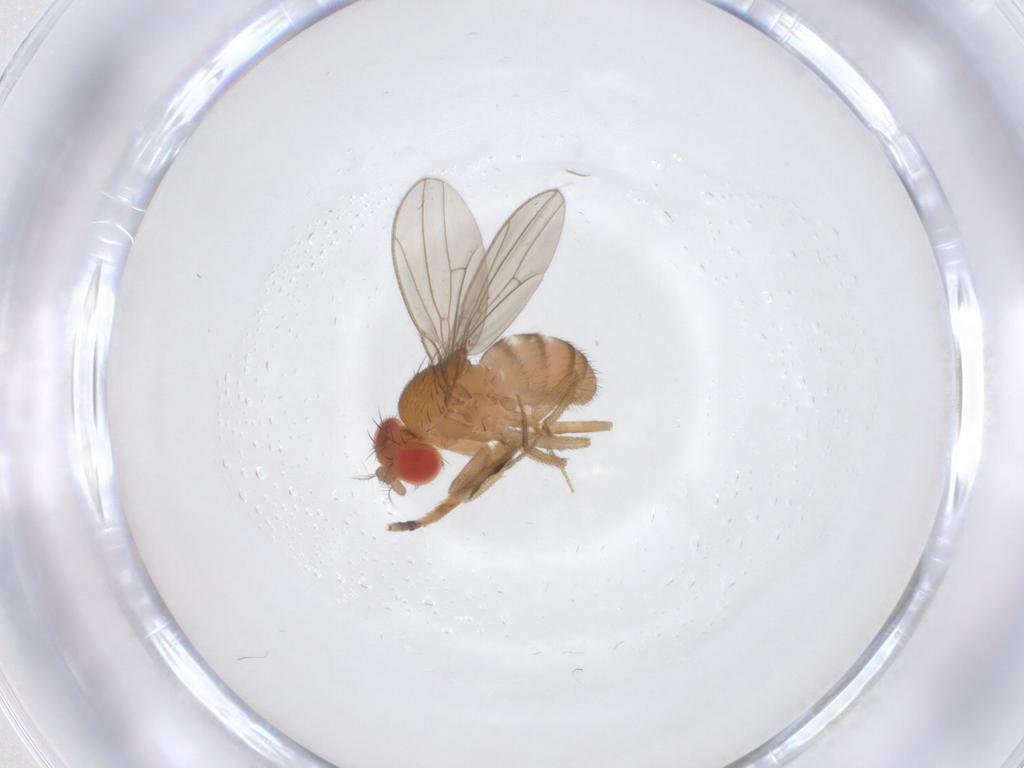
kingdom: Animalia
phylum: Arthropoda
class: Insecta
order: Diptera
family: Drosophilidae
